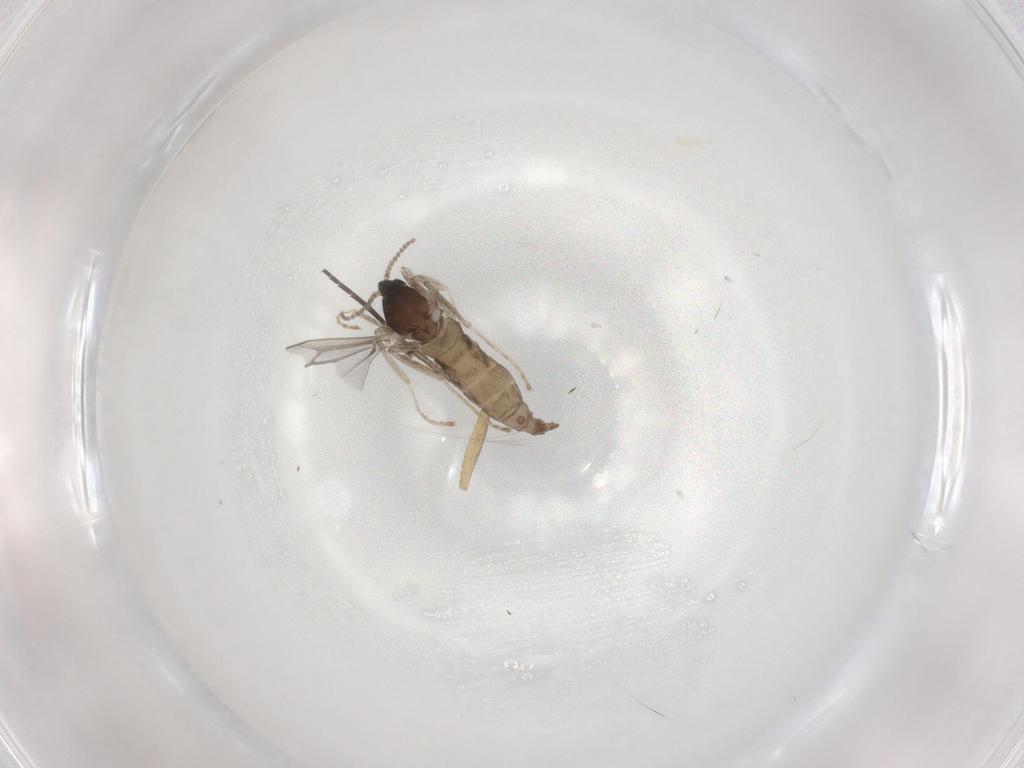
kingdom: Animalia
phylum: Arthropoda
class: Insecta
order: Diptera
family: Cecidomyiidae
